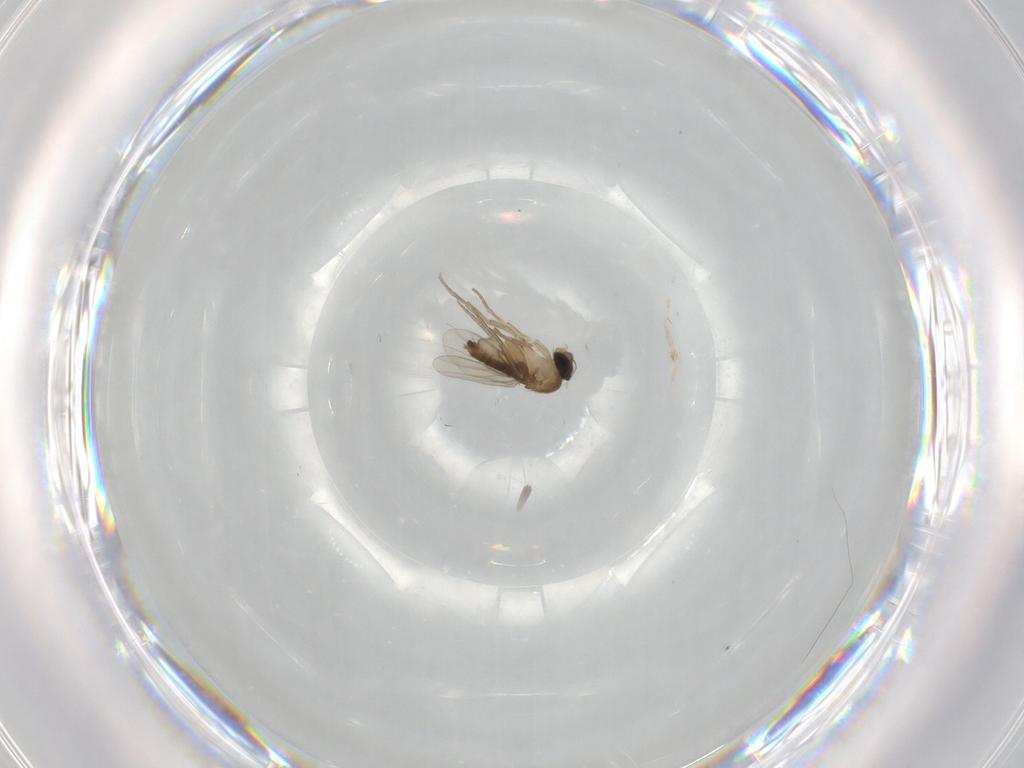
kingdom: Animalia
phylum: Arthropoda
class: Insecta
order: Diptera
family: Phoridae
